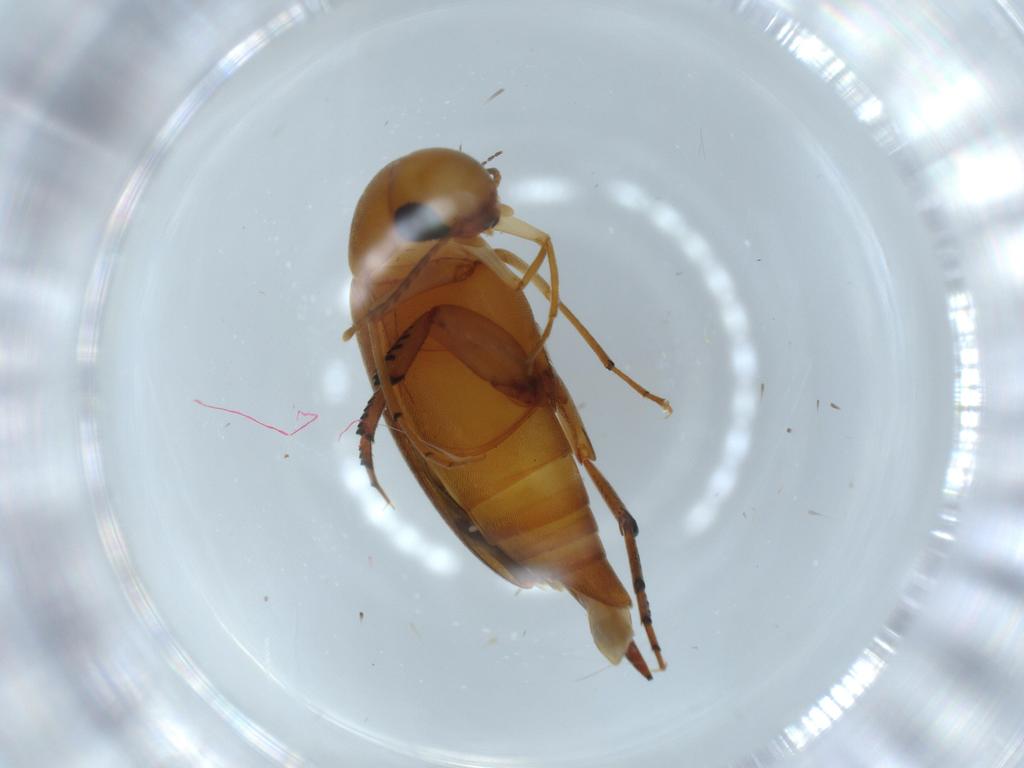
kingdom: Animalia
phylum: Arthropoda
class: Insecta
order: Coleoptera
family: Mordellidae
